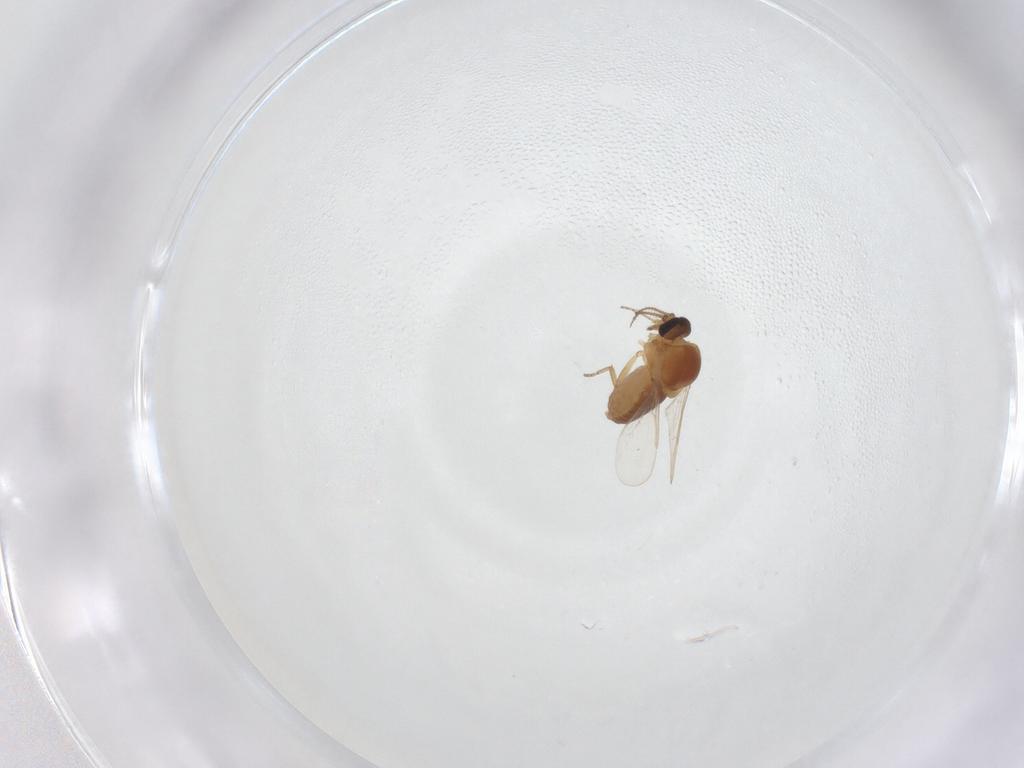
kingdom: Animalia
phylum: Arthropoda
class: Insecta
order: Diptera
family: Ceratopogonidae
